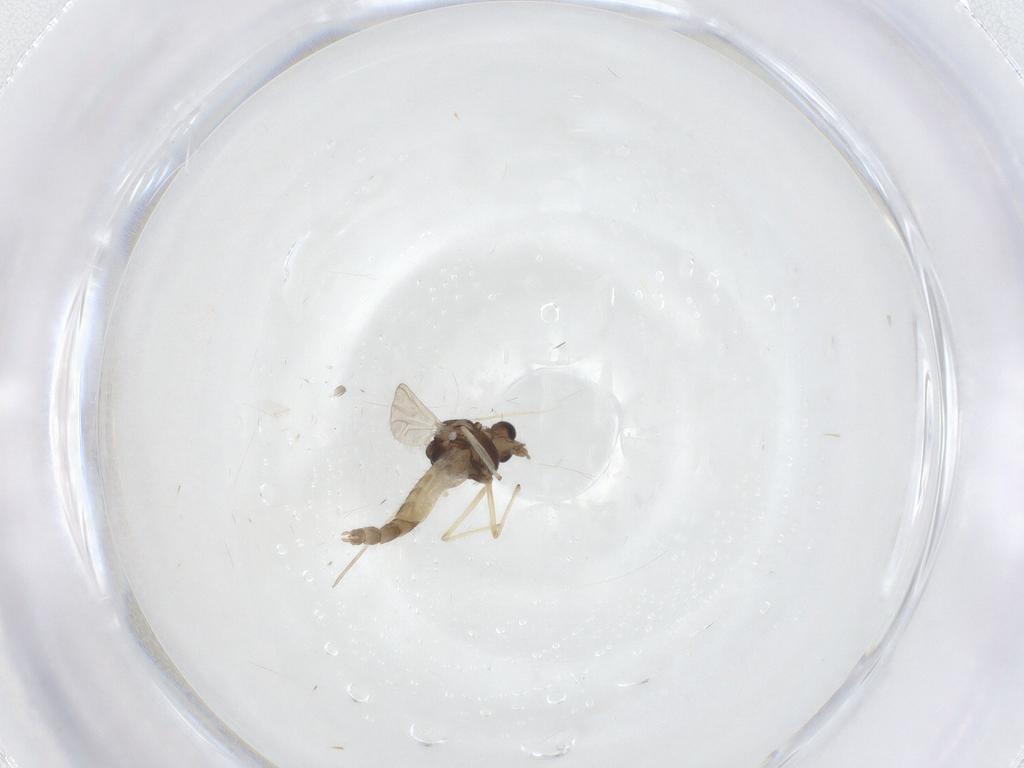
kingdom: Animalia
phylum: Arthropoda
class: Insecta
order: Diptera
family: Chironomidae
